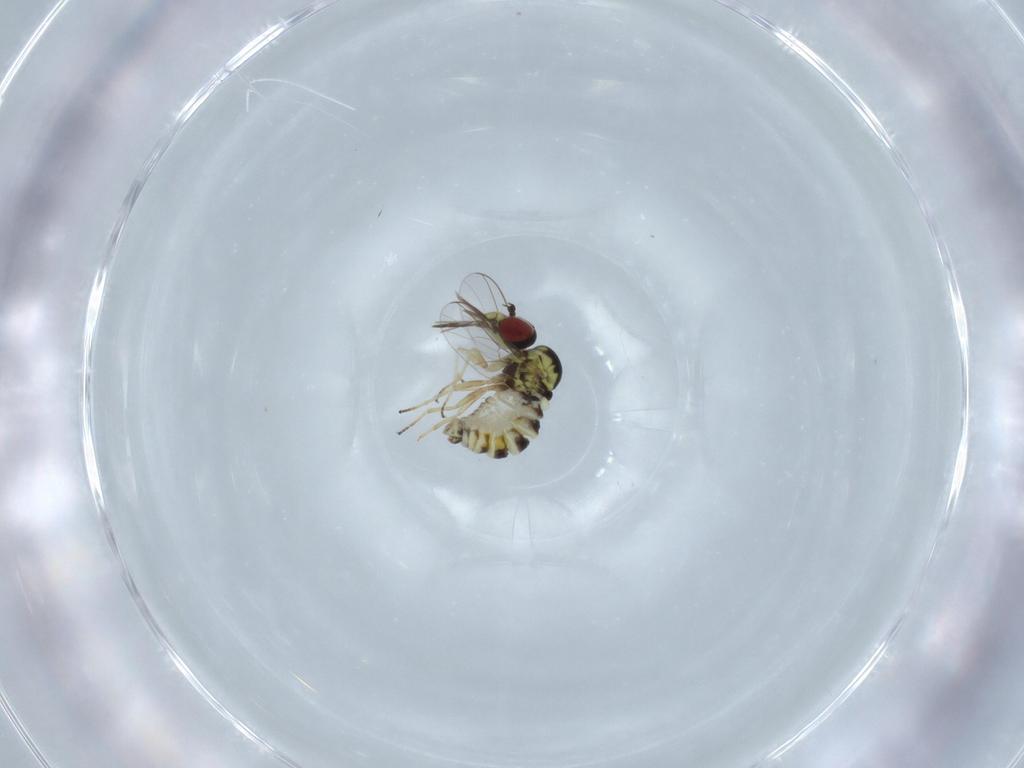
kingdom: Animalia
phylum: Arthropoda
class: Insecta
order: Diptera
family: Bombyliidae
